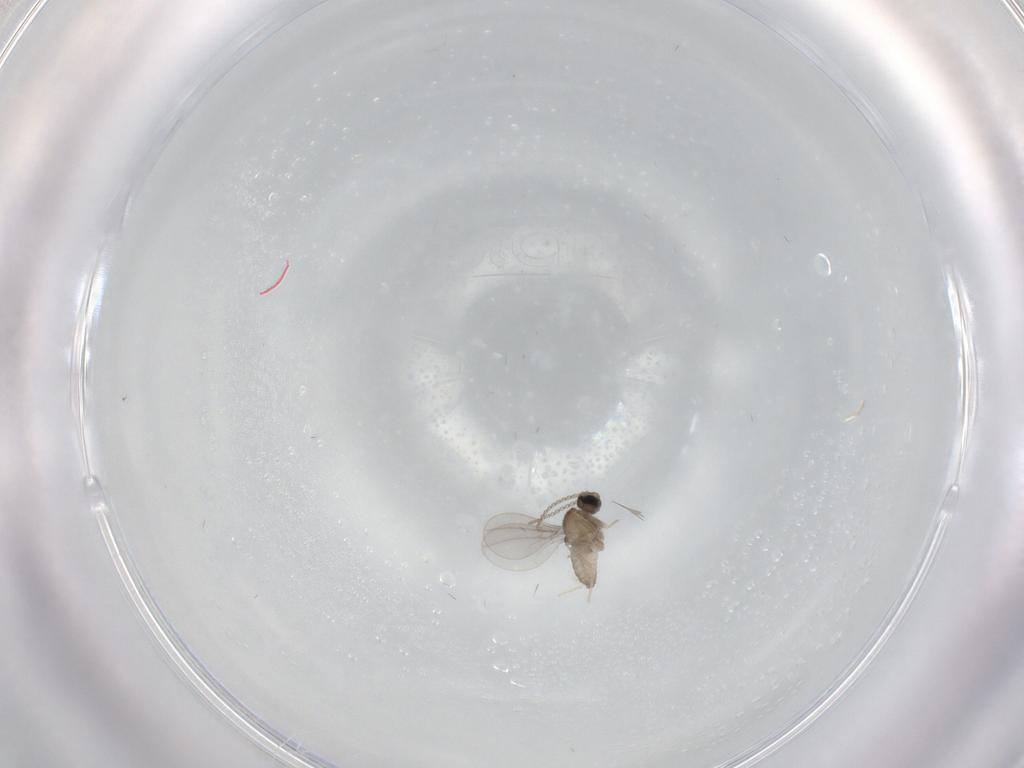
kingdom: Animalia
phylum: Arthropoda
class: Insecta
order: Diptera
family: Cecidomyiidae
